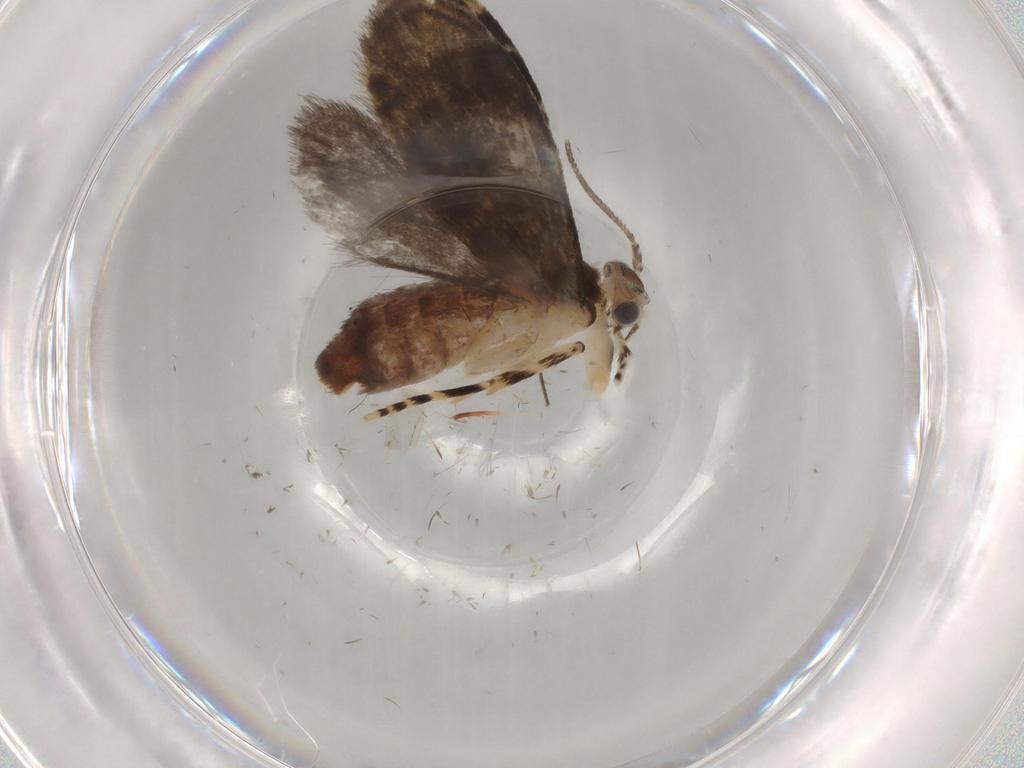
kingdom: Animalia
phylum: Arthropoda
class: Insecta
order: Lepidoptera
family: Tineidae
